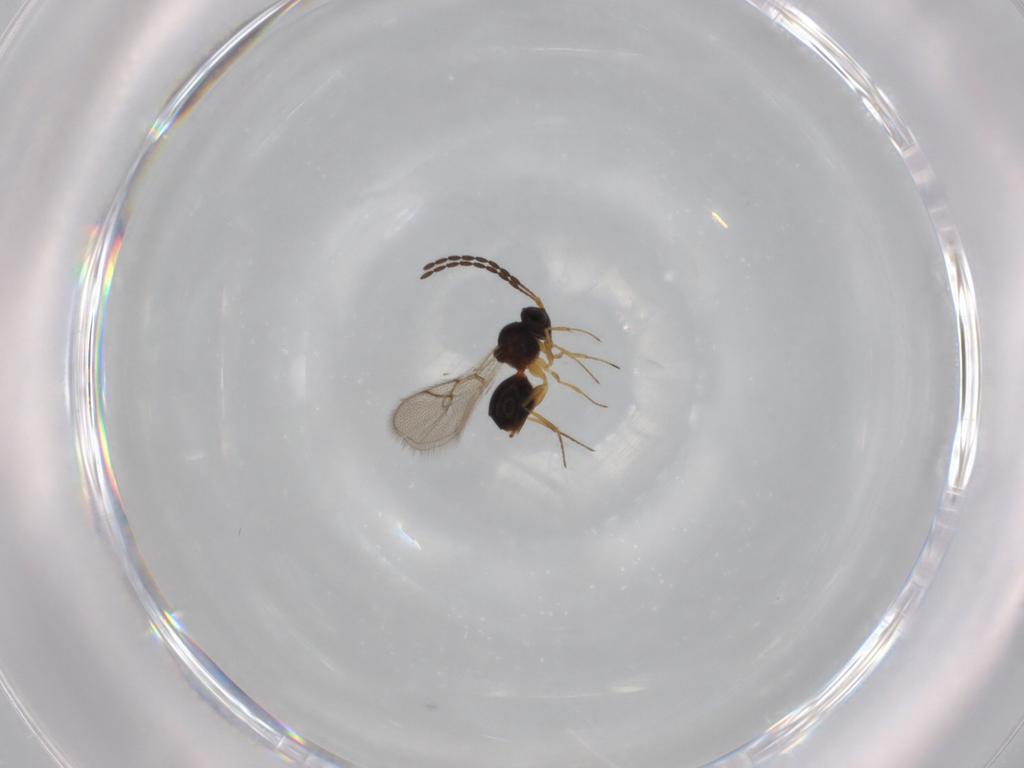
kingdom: Animalia
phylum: Arthropoda
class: Insecta
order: Hymenoptera
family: Figitidae
